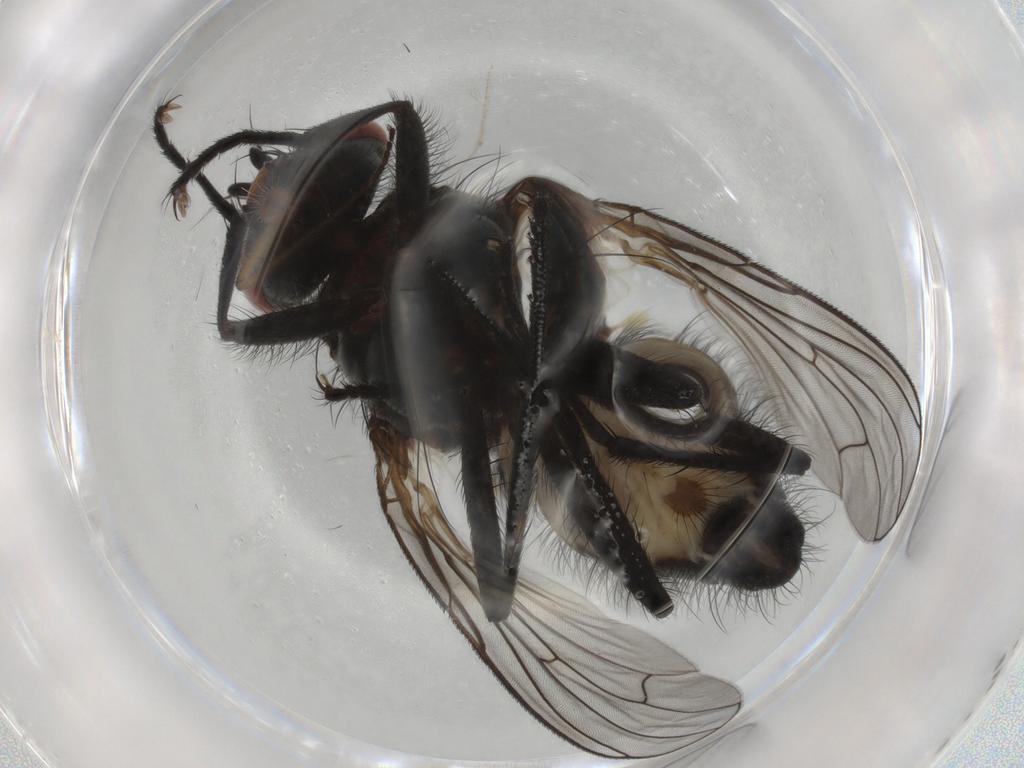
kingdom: Animalia
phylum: Arthropoda
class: Insecta
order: Diptera
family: Anthomyiidae
